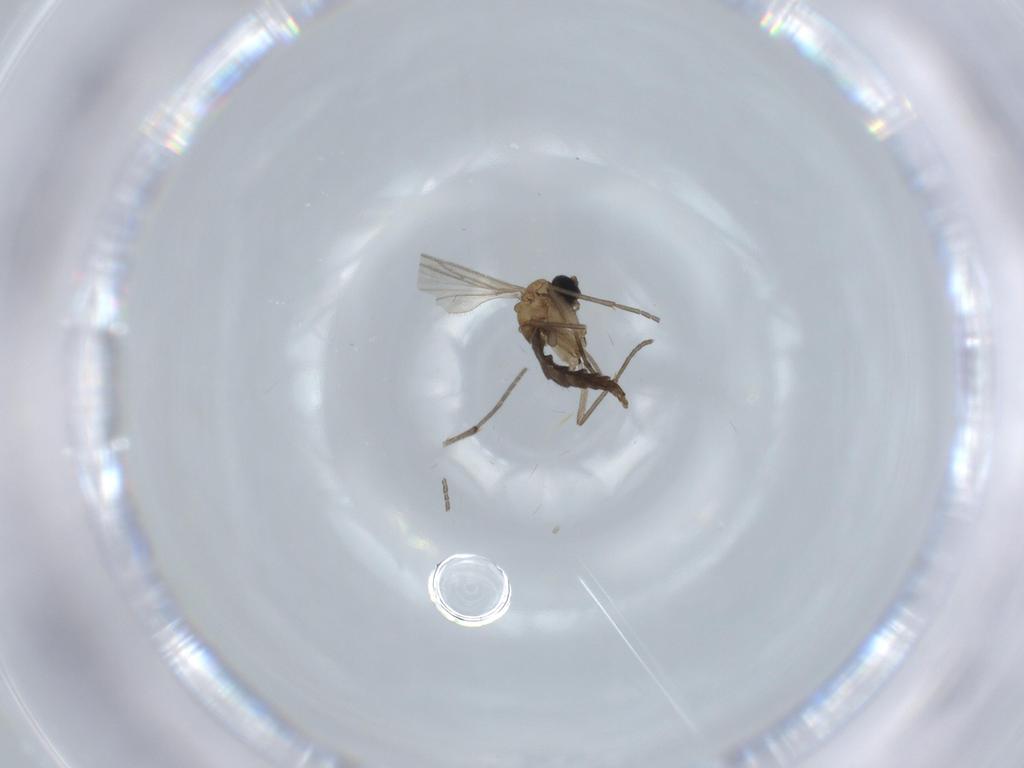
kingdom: Animalia
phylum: Arthropoda
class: Insecta
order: Diptera
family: Sciaridae
